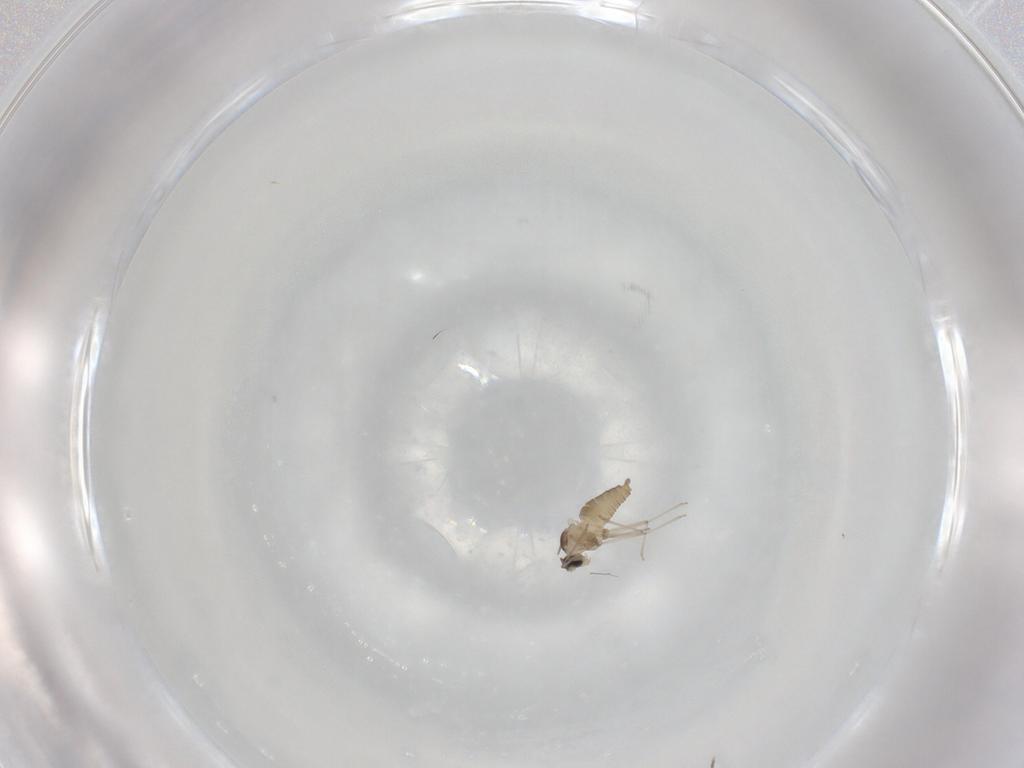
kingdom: Animalia
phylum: Arthropoda
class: Insecta
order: Diptera
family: Cecidomyiidae
